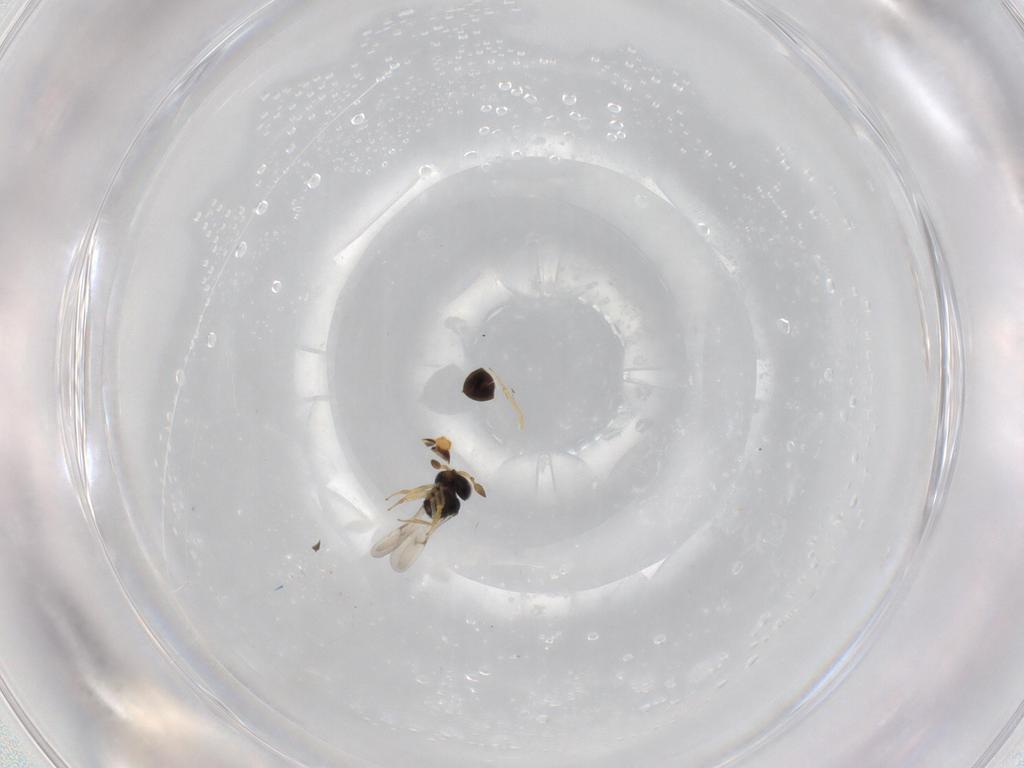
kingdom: Animalia
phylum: Arthropoda
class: Insecta
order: Hymenoptera
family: Scelionidae
